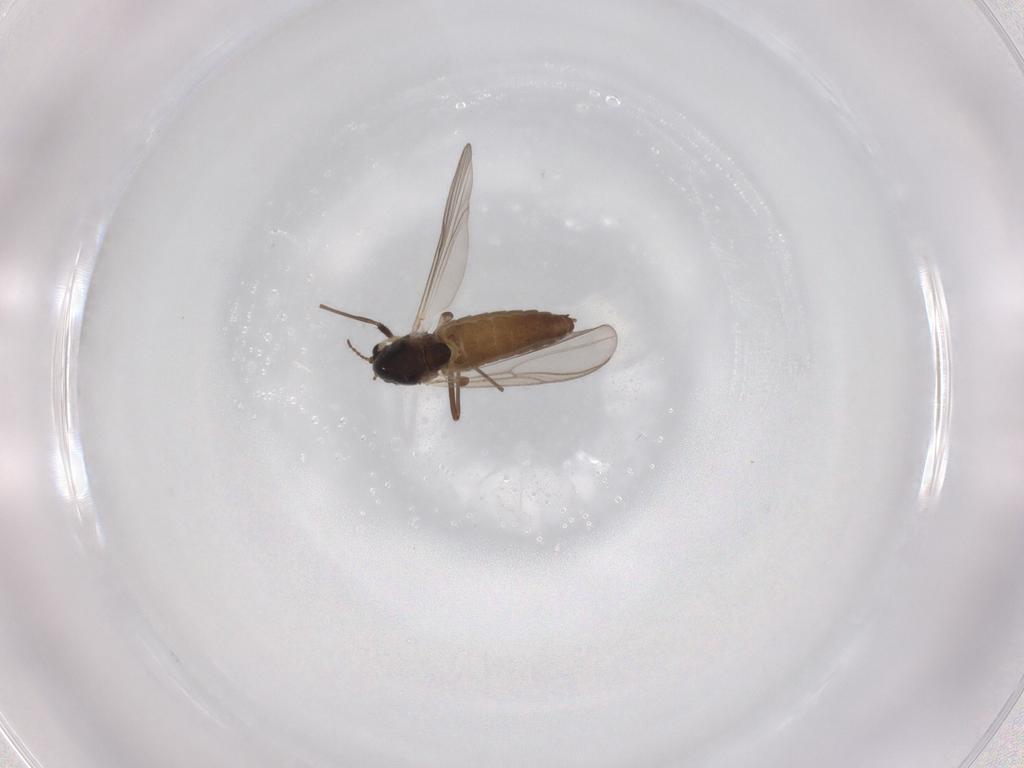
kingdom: Animalia
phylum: Arthropoda
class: Insecta
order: Diptera
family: Chironomidae
